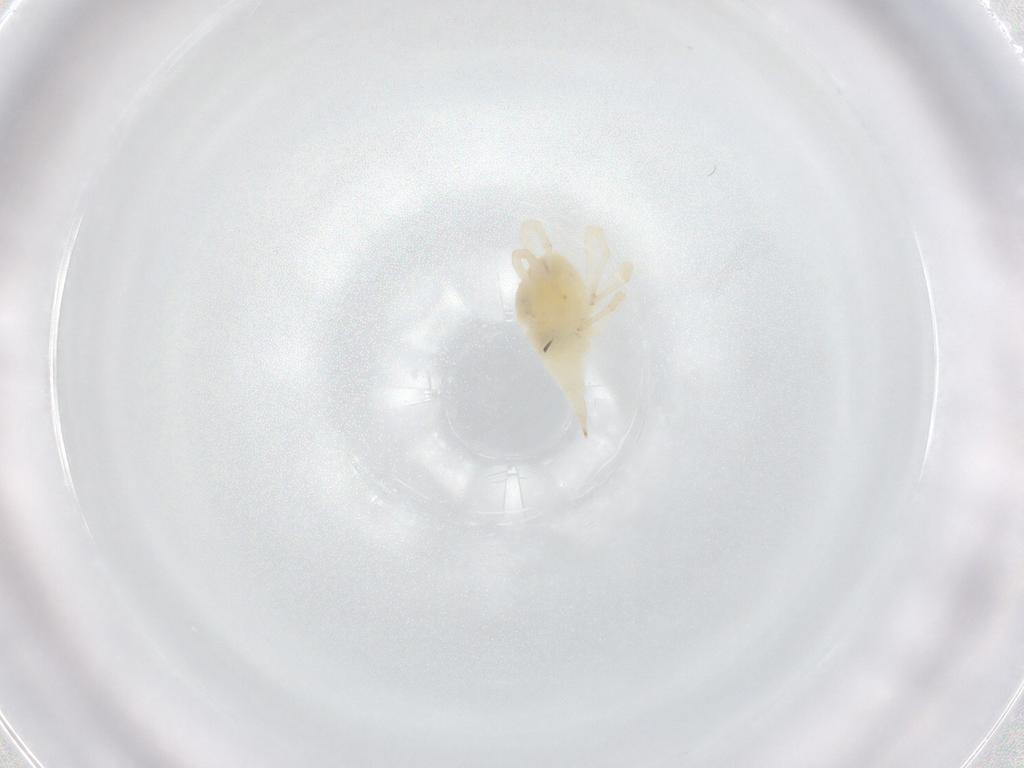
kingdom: Animalia
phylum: Arthropoda
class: Arachnida
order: Trombidiformes
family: Bdellidae
